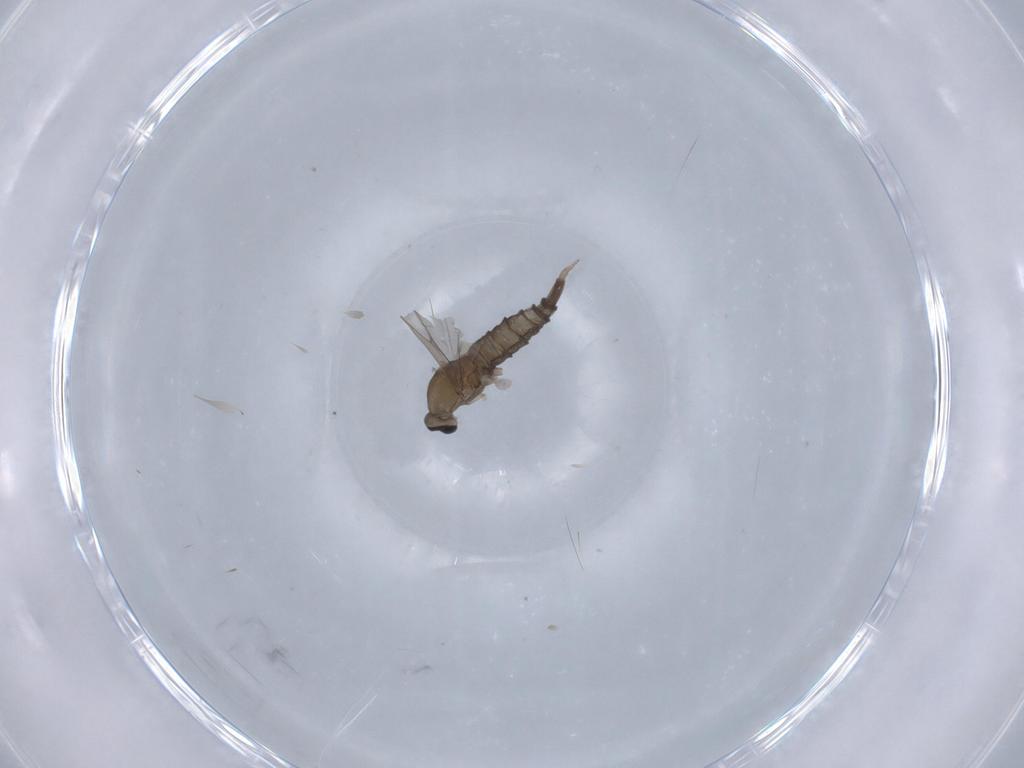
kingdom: Animalia
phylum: Arthropoda
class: Insecta
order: Diptera
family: Cecidomyiidae
